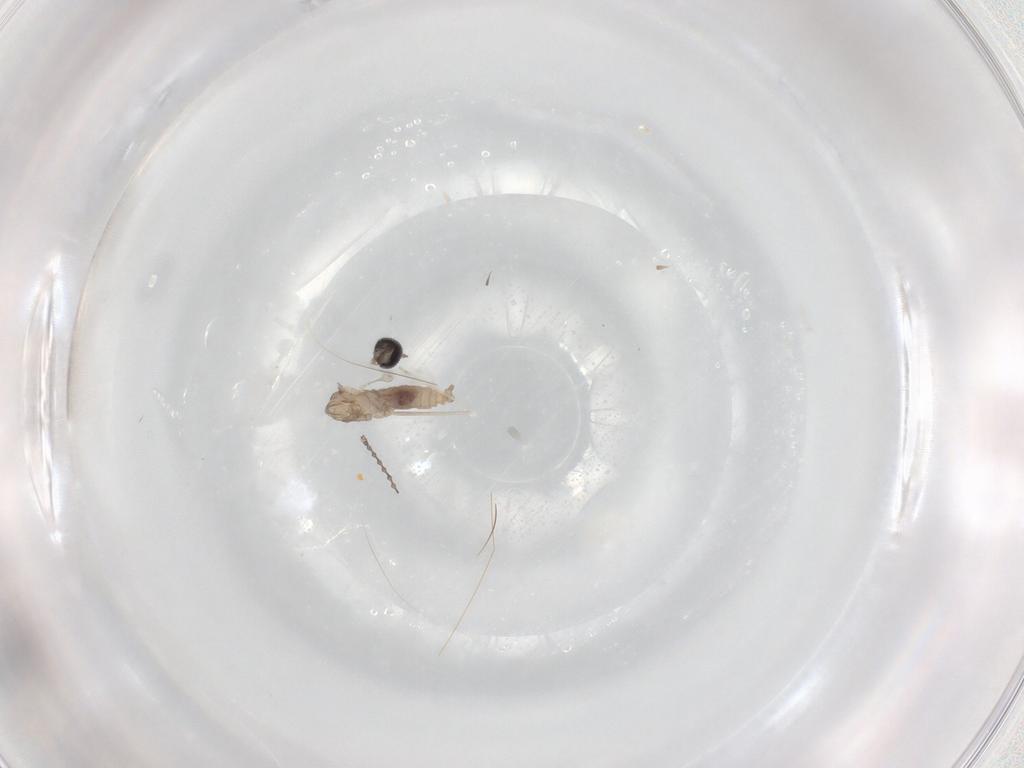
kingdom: Animalia
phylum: Arthropoda
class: Insecta
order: Diptera
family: Cecidomyiidae
